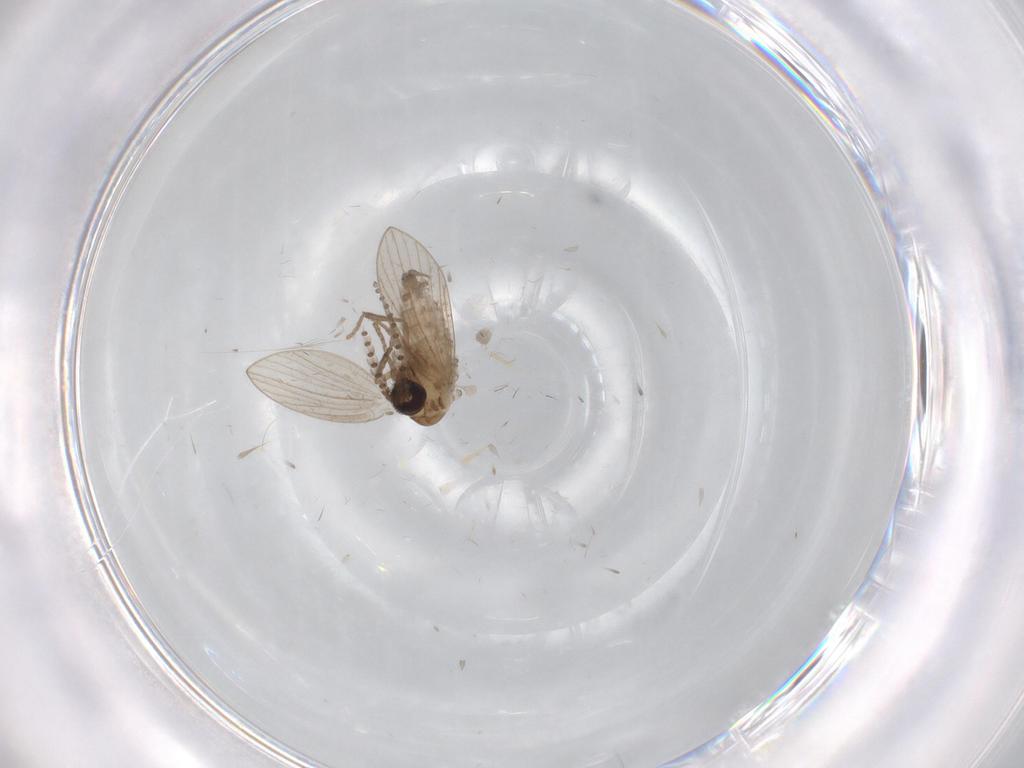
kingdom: Animalia
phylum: Arthropoda
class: Insecta
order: Diptera
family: Psychodidae
